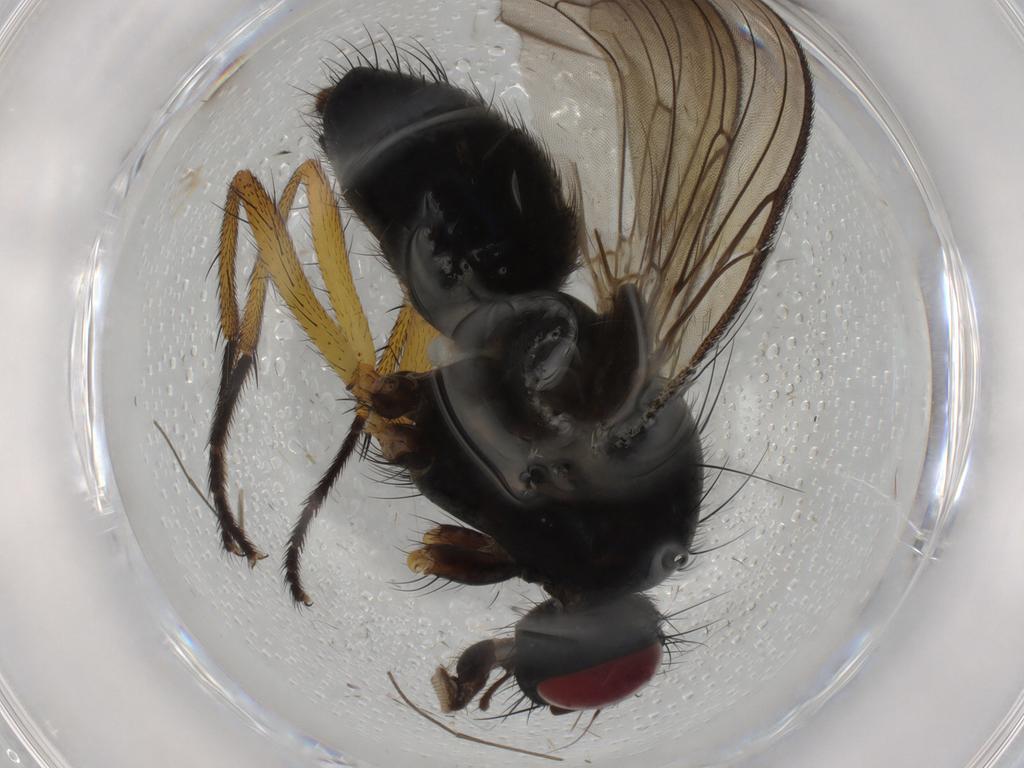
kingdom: Animalia
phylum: Arthropoda
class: Insecta
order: Diptera
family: Muscidae
